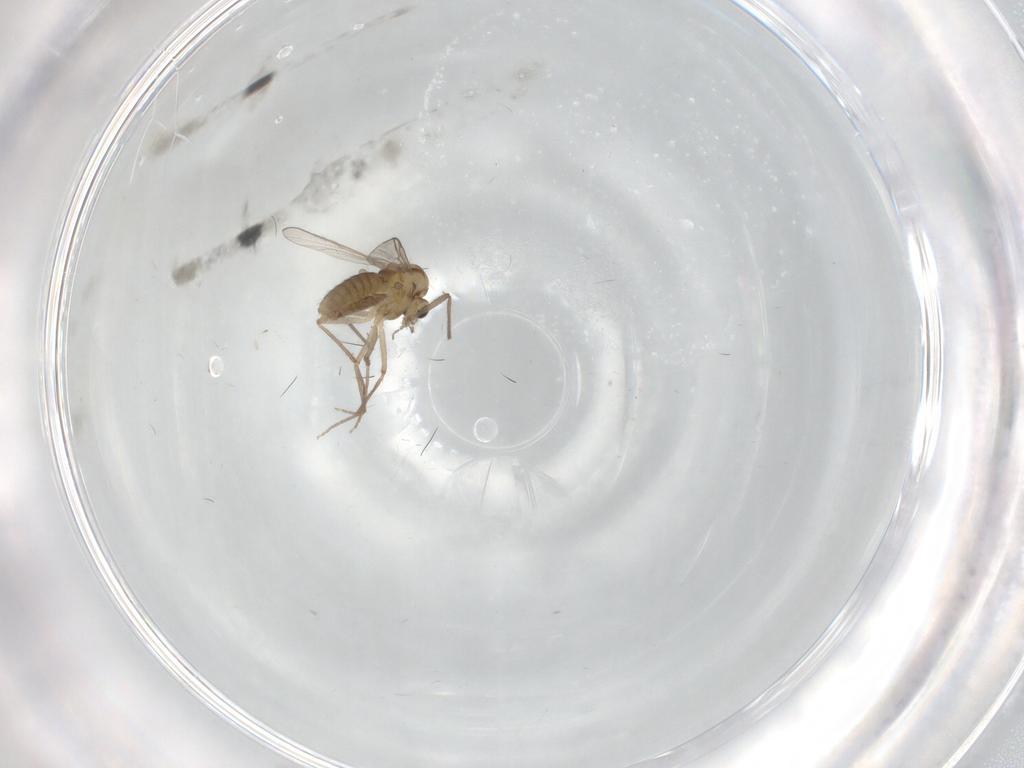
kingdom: Animalia
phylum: Arthropoda
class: Insecta
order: Diptera
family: Chironomidae
